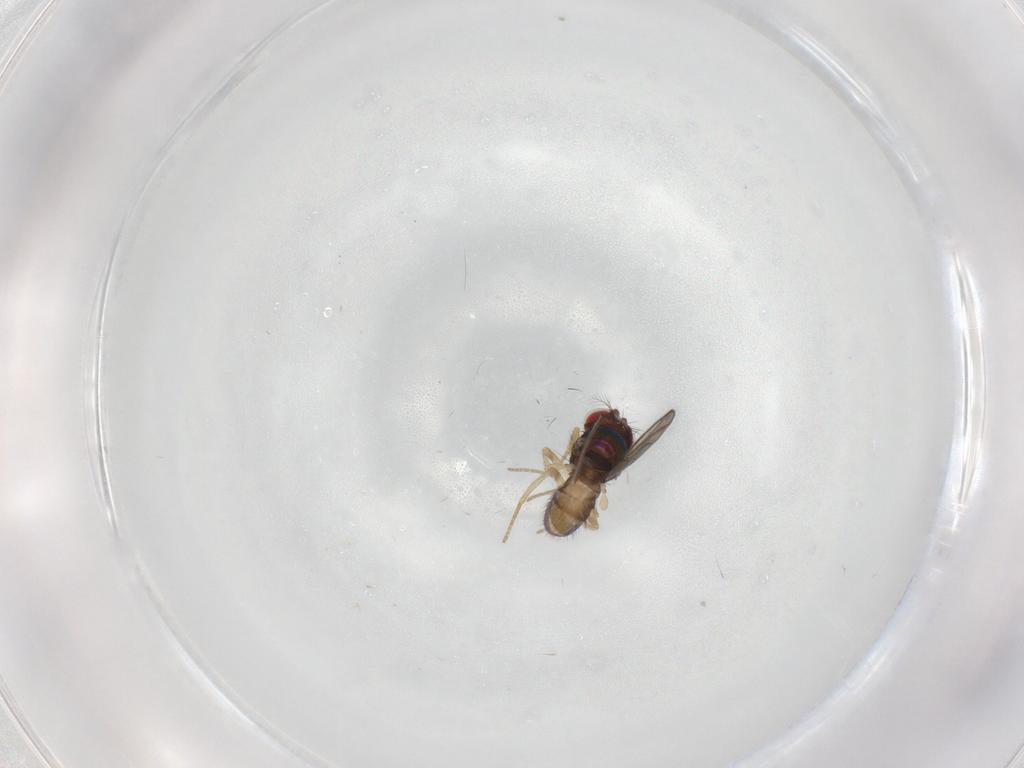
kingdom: Animalia
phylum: Arthropoda
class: Insecta
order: Diptera
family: Drosophilidae
